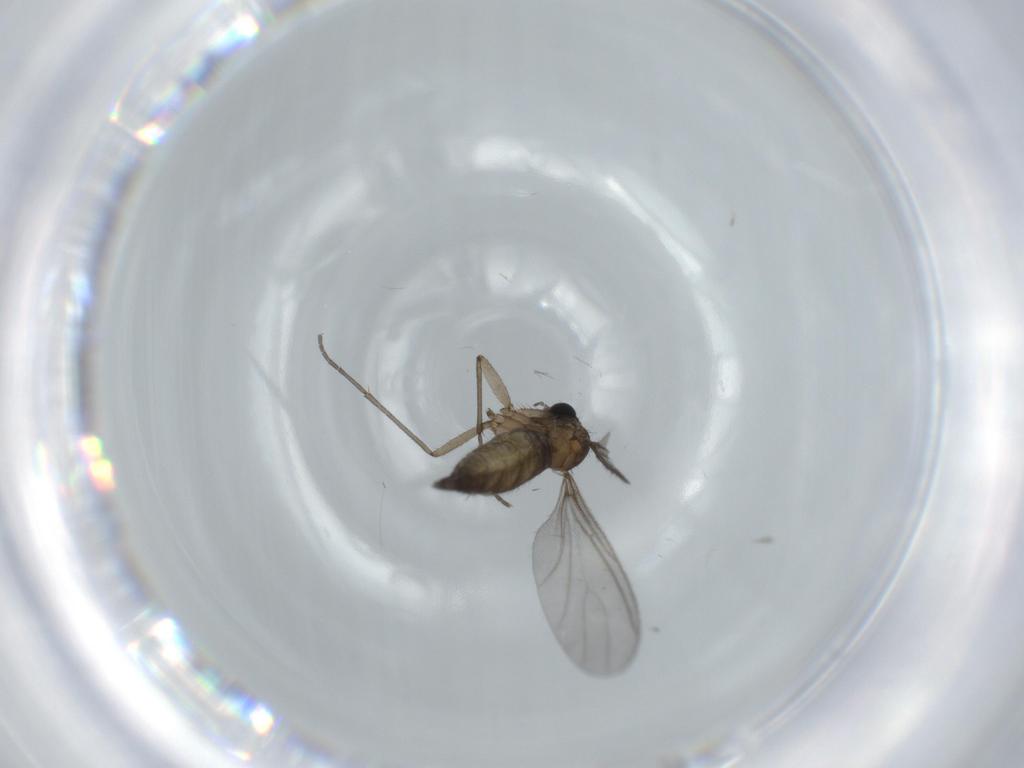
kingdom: Animalia
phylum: Arthropoda
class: Insecta
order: Diptera
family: Sciaridae
